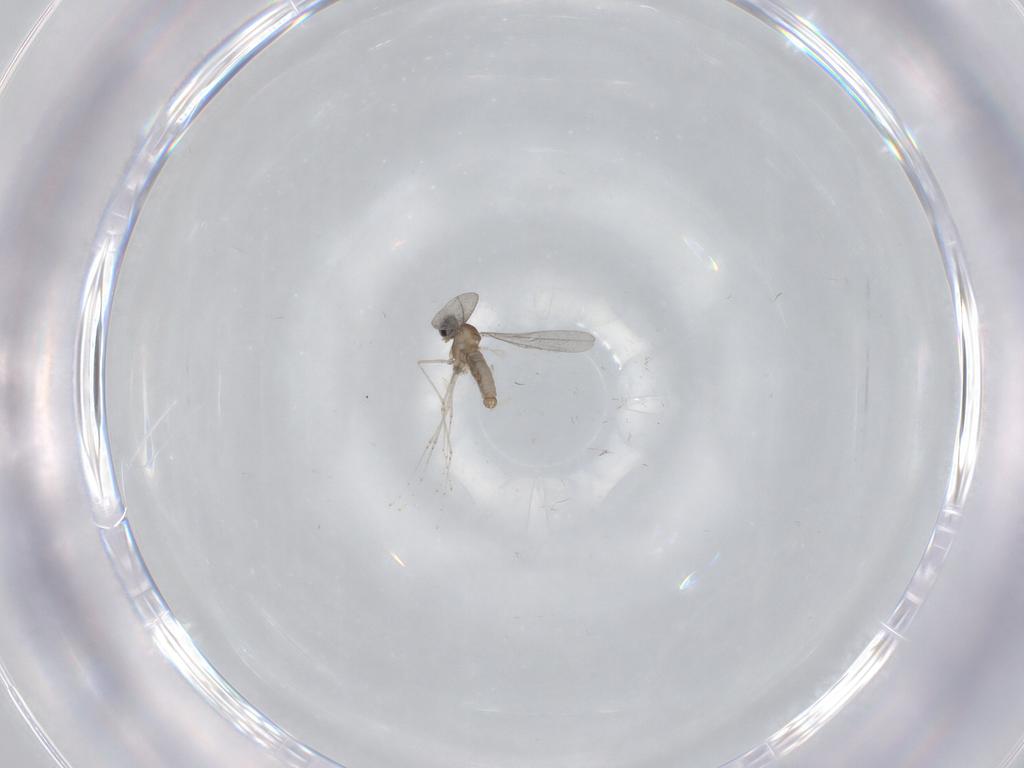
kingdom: Animalia
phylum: Arthropoda
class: Insecta
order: Diptera
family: Cecidomyiidae
